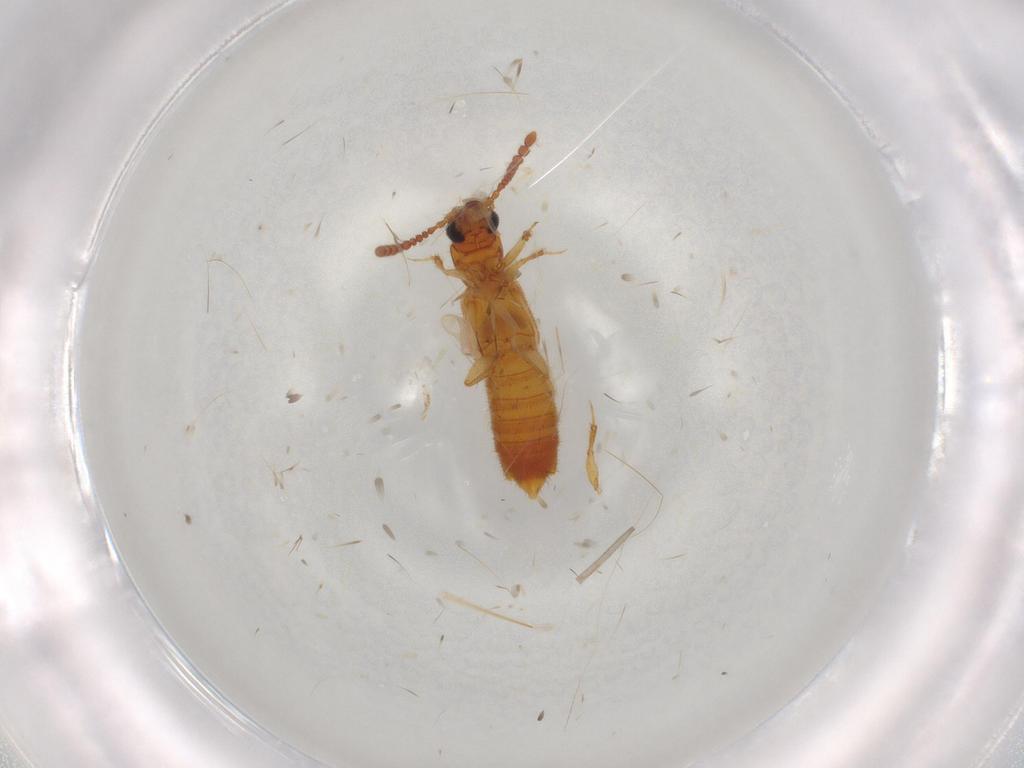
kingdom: Animalia
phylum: Arthropoda
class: Insecta
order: Coleoptera
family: Staphylinidae
